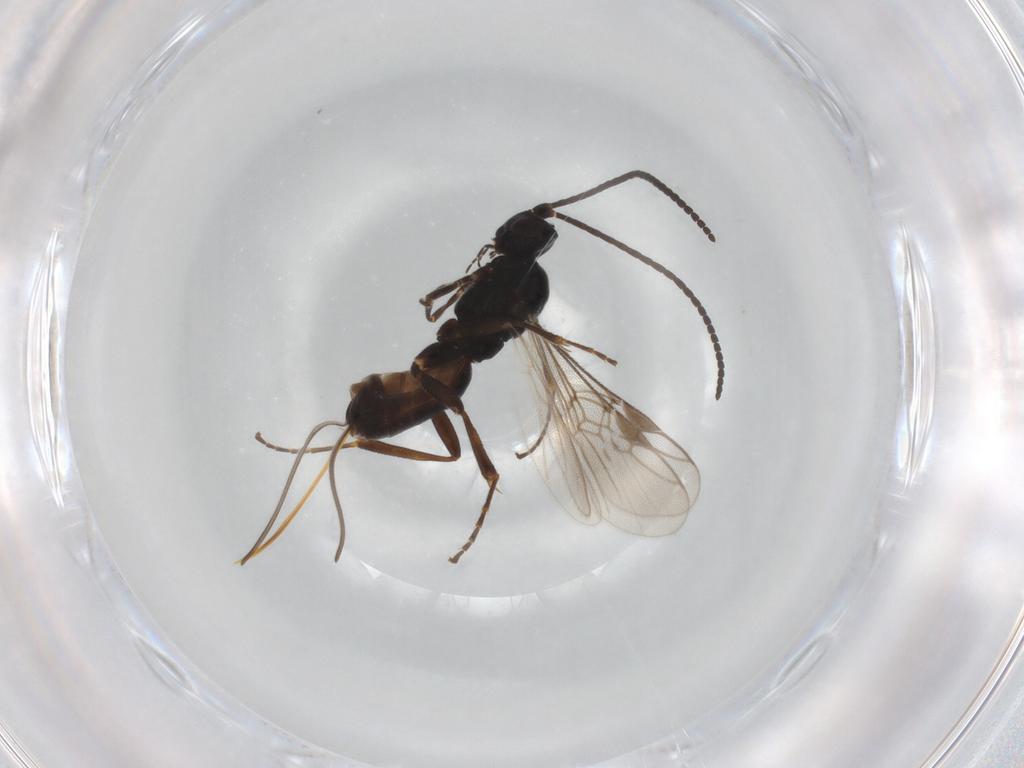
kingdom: Animalia
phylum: Arthropoda
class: Insecta
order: Hymenoptera
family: Braconidae
